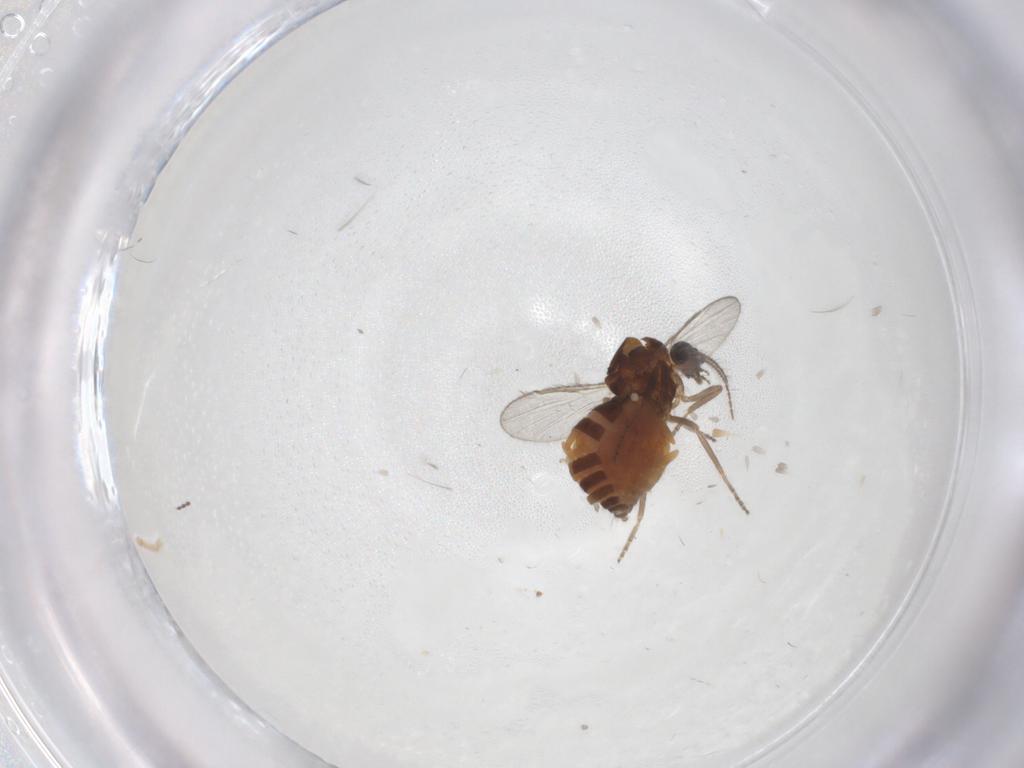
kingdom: Animalia
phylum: Arthropoda
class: Insecta
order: Diptera
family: Ceratopogonidae
